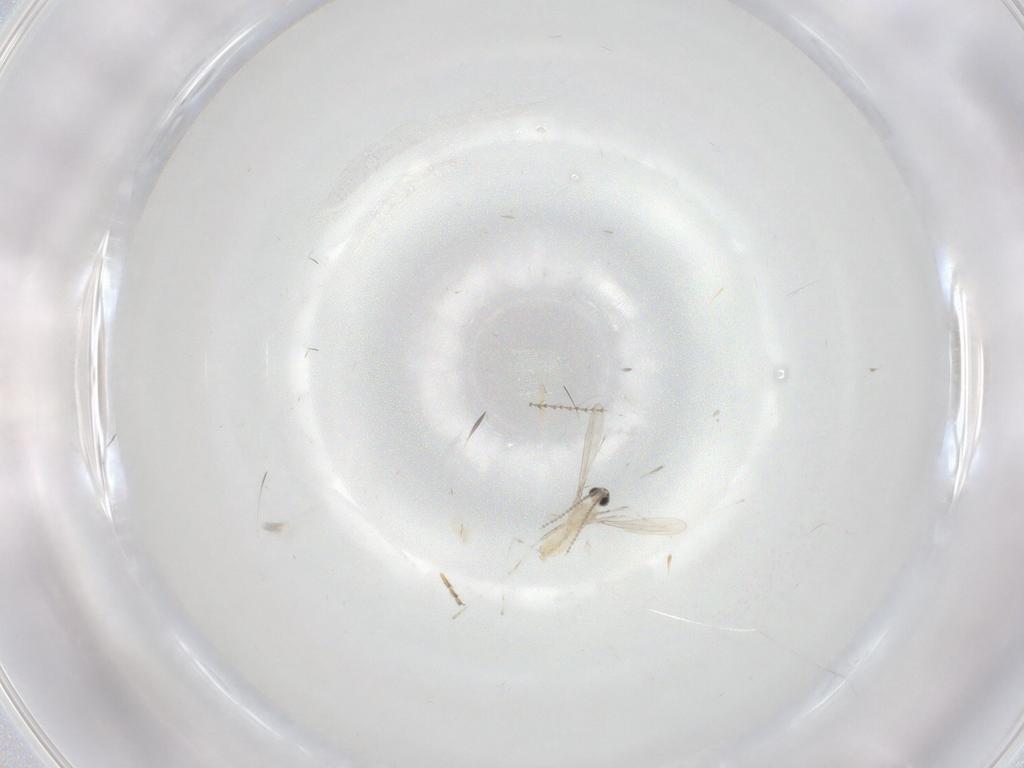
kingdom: Animalia
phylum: Arthropoda
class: Insecta
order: Diptera
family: Cecidomyiidae
